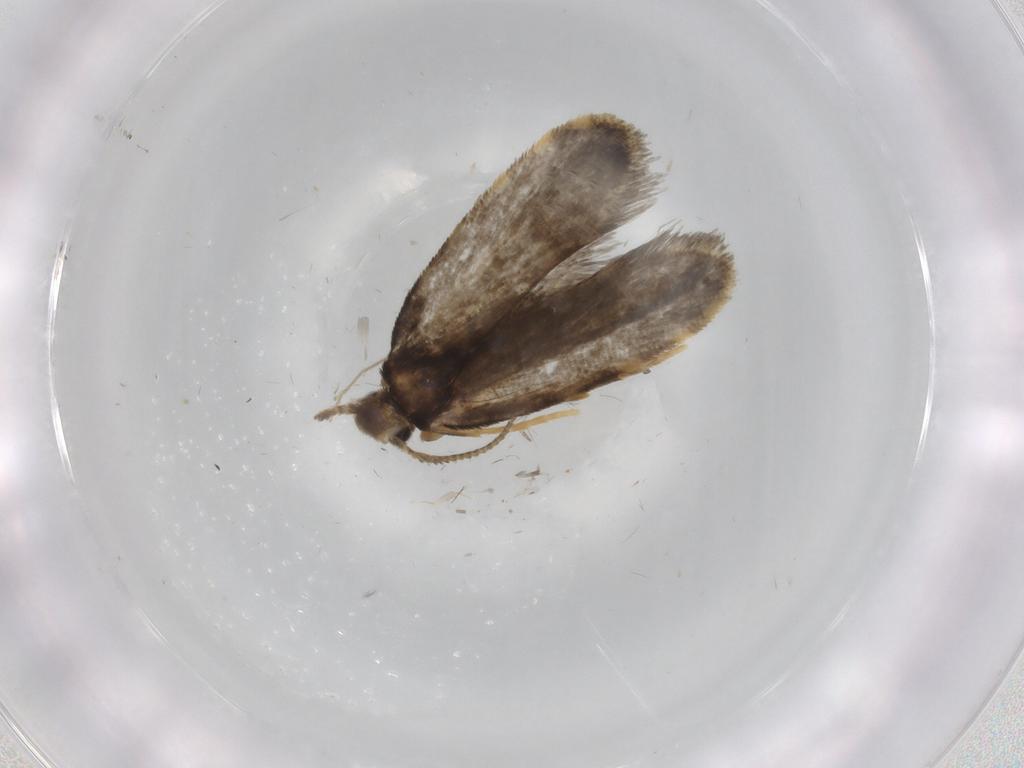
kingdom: Animalia
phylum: Arthropoda
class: Insecta
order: Lepidoptera
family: Psychidae
